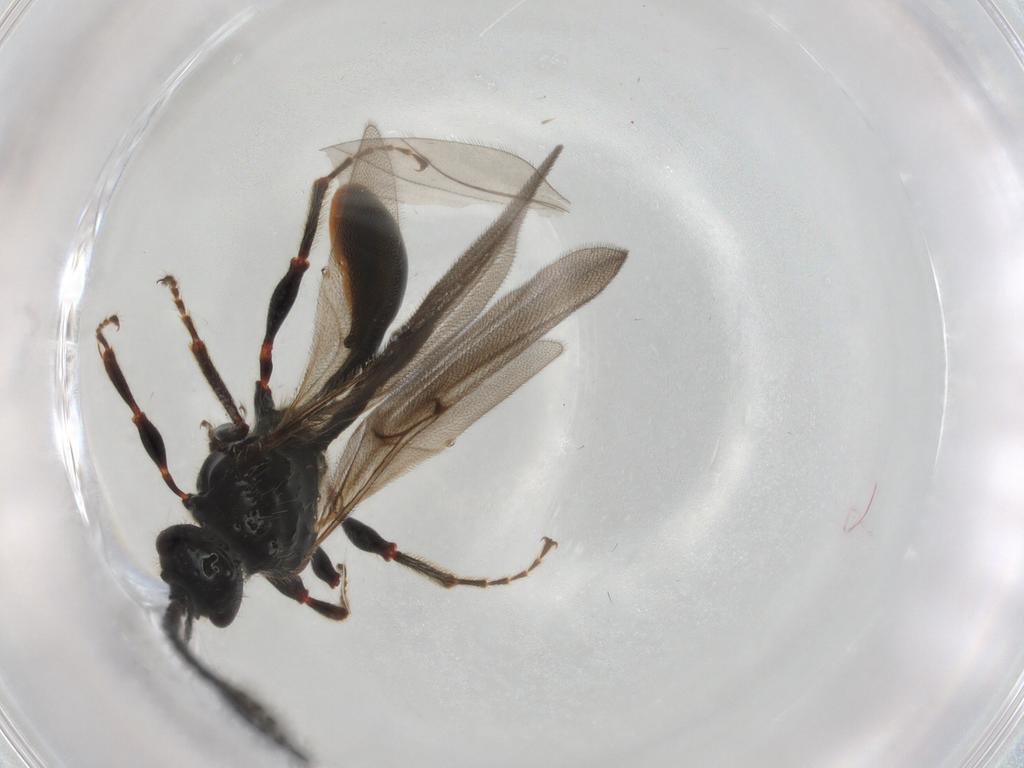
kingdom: Animalia
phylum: Arthropoda
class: Insecta
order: Hymenoptera
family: Diapriidae
